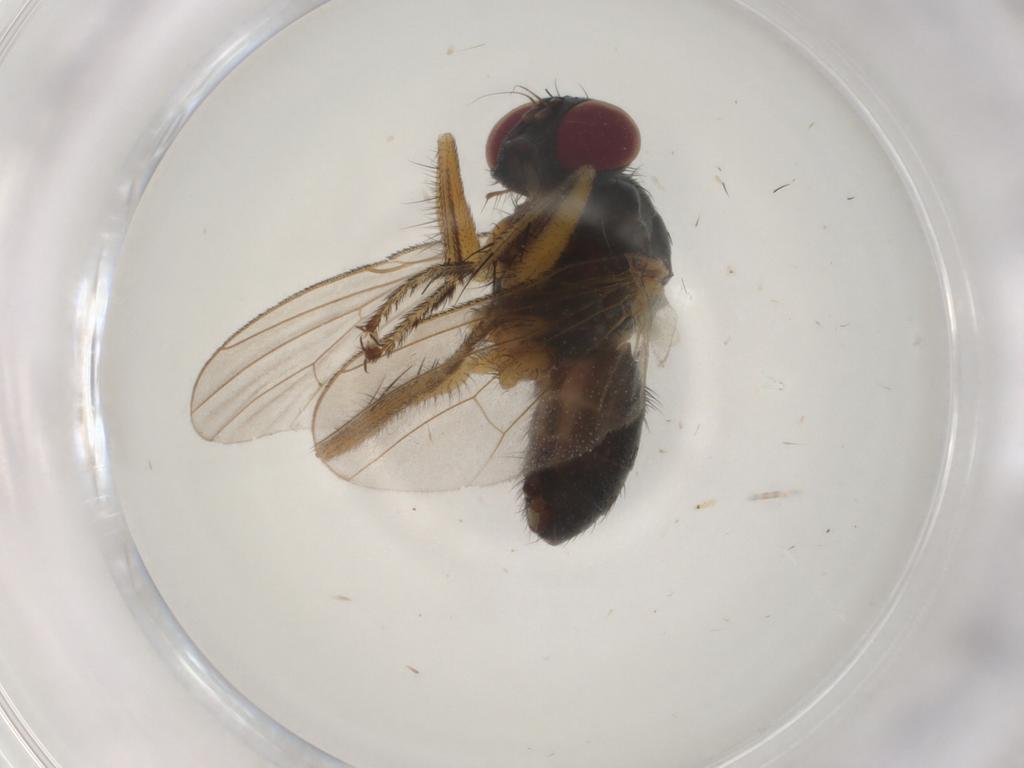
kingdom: Animalia
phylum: Arthropoda
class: Insecta
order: Diptera
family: Muscidae
